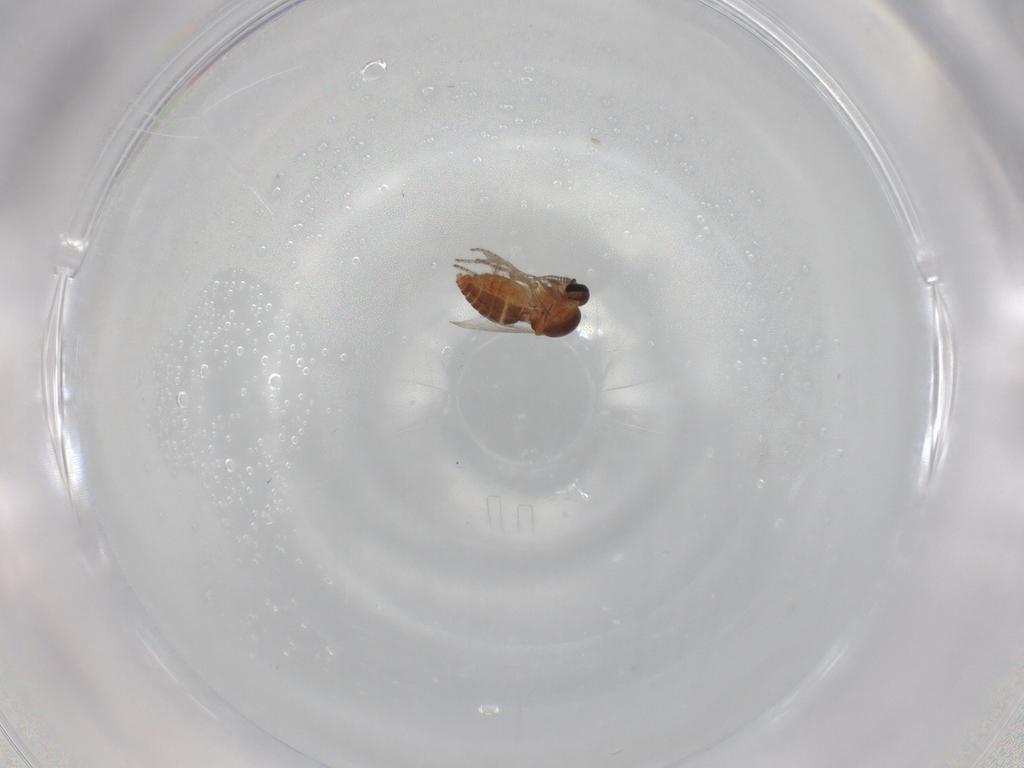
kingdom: Animalia
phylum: Arthropoda
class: Insecta
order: Diptera
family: Ceratopogonidae
